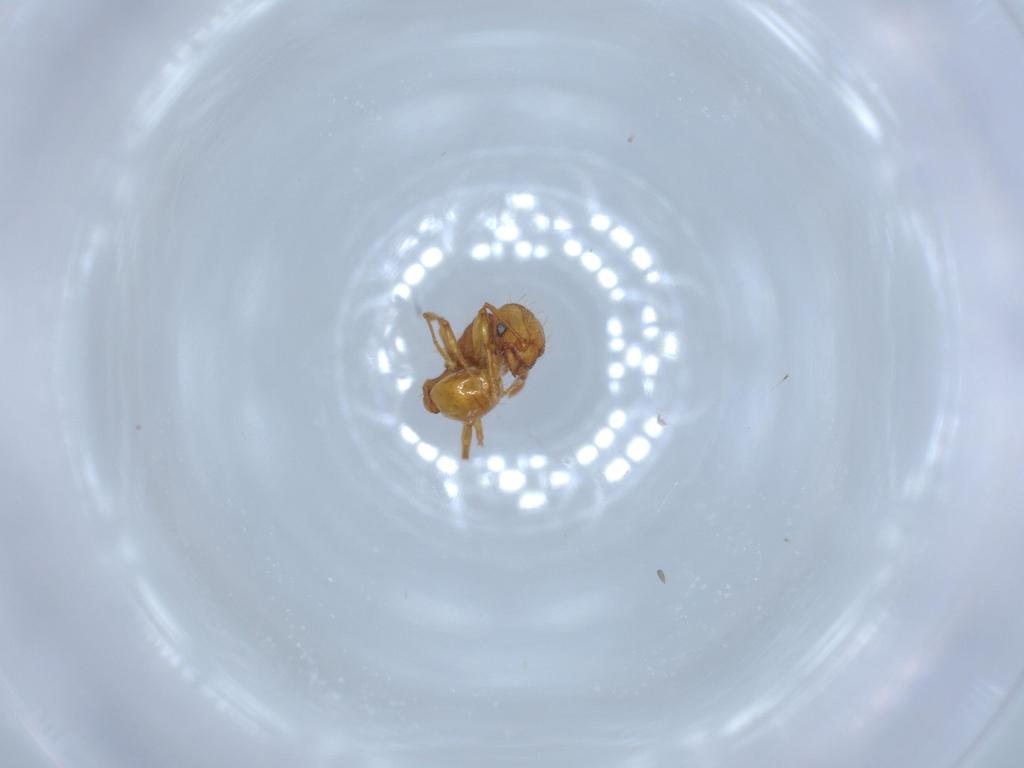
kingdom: Animalia
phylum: Arthropoda
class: Insecta
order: Hymenoptera
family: Formicidae
